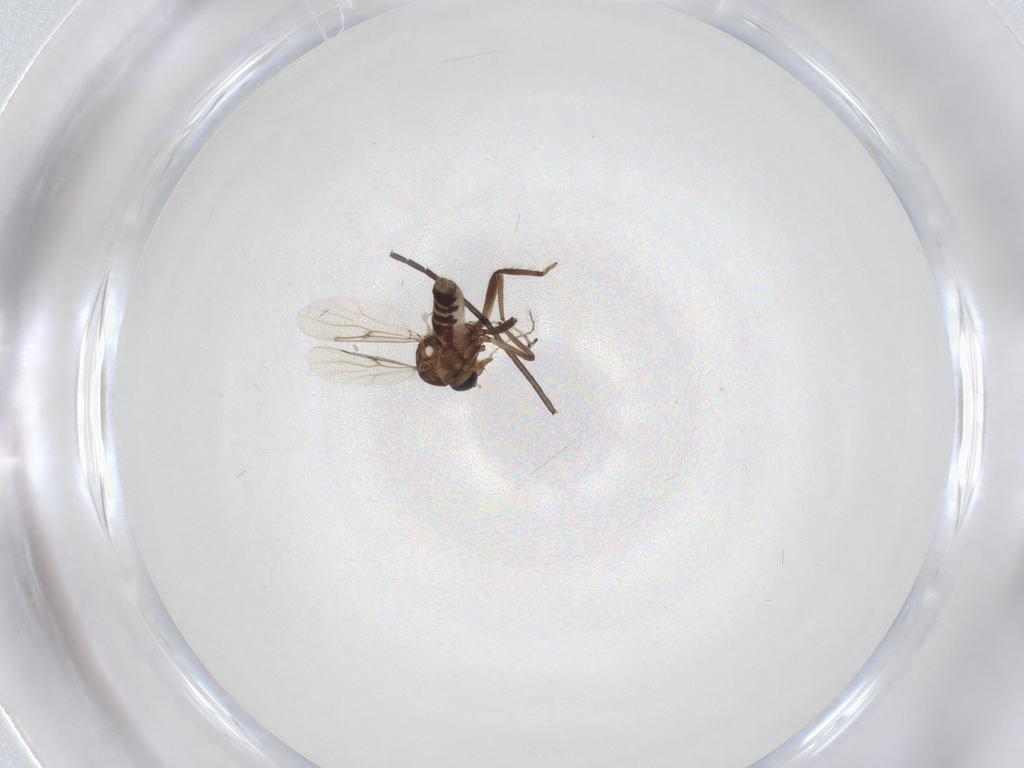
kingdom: Animalia
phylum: Arthropoda
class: Insecta
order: Diptera
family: Ceratopogonidae
